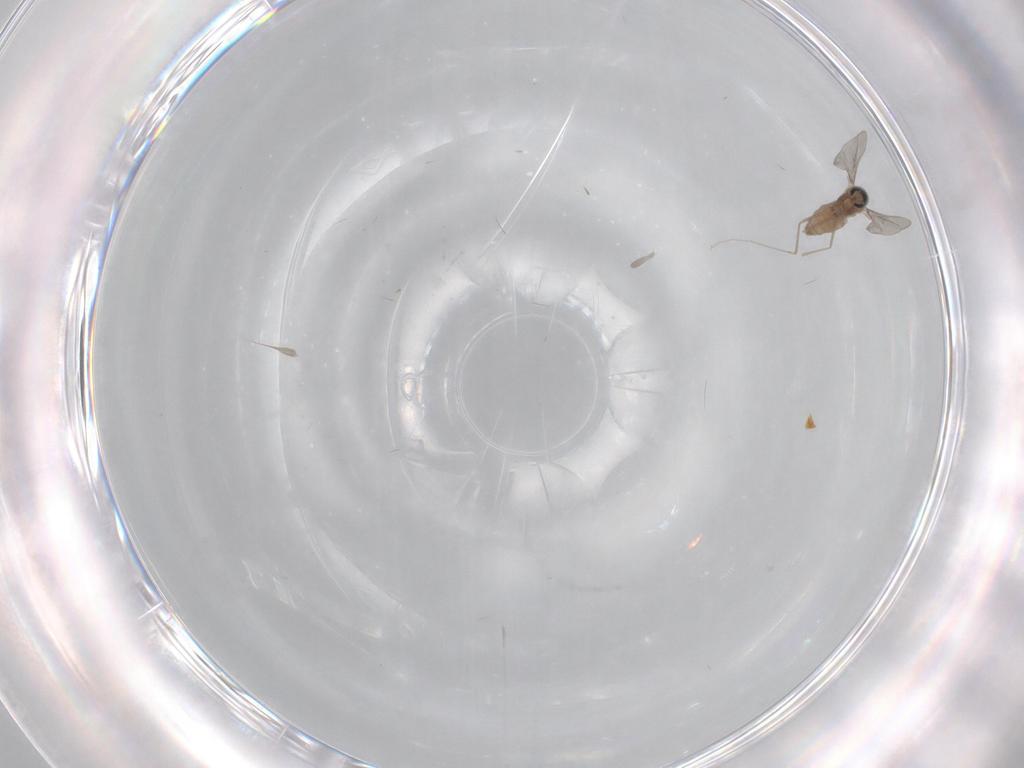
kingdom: Animalia
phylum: Arthropoda
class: Insecta
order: Diptera
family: Cecidomyiidae
